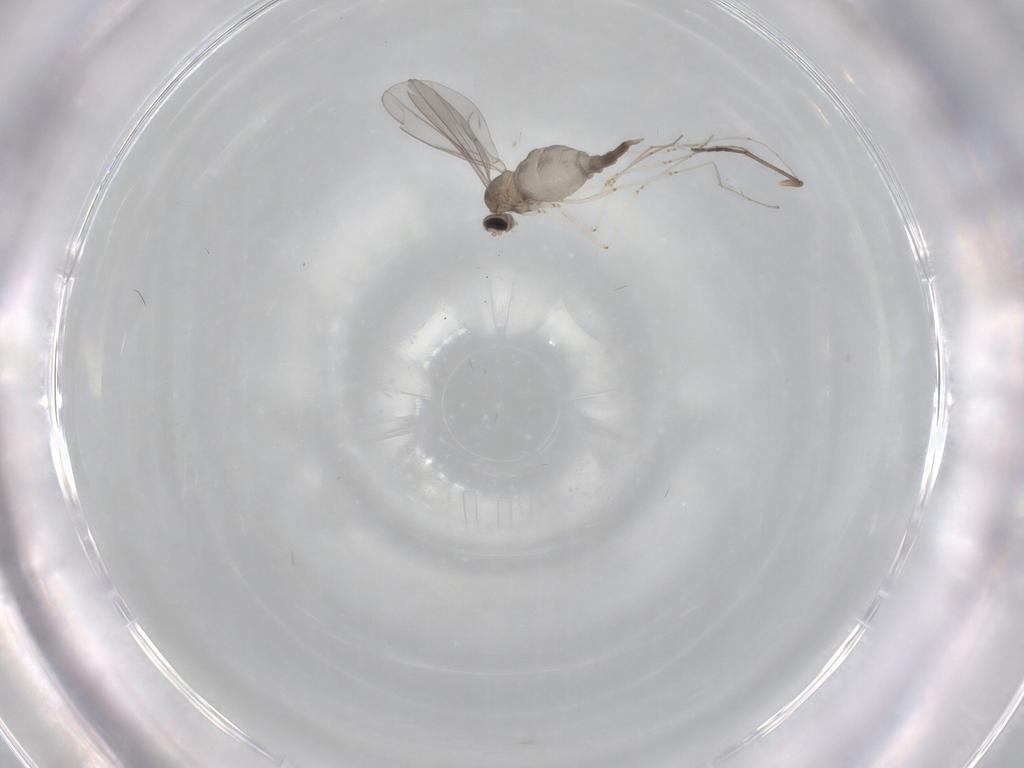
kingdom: Animalia
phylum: Arthropoda
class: Insecta
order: Diptera
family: Cecidomyiidae
